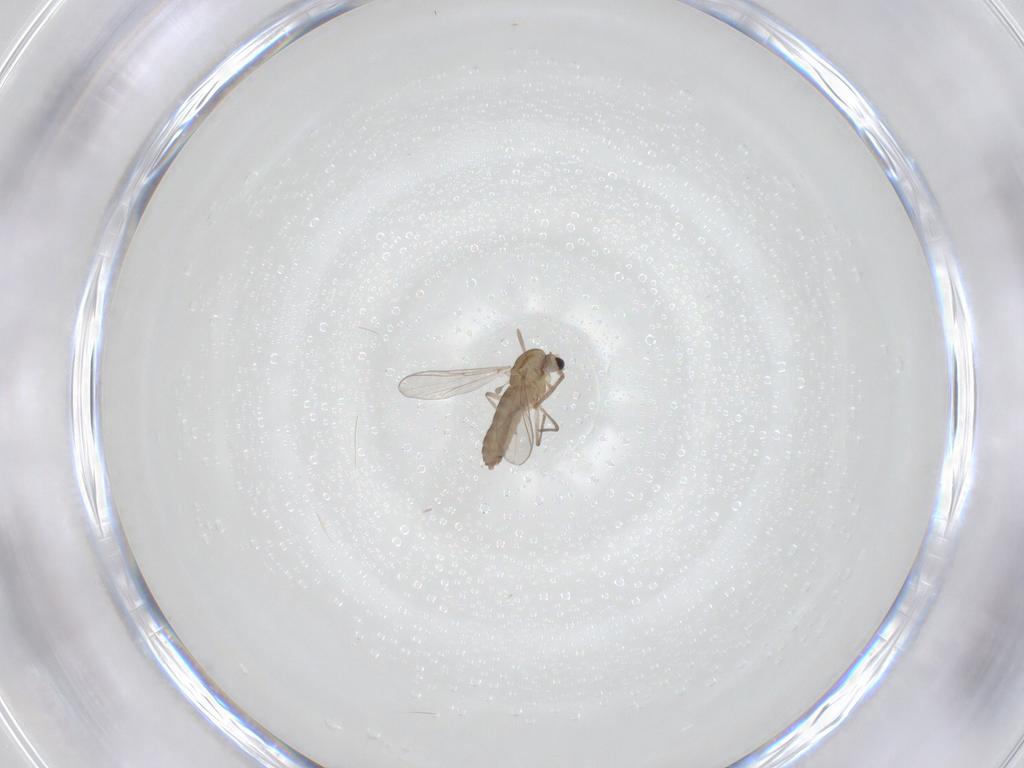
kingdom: Animalia
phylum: Arthropoda
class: Insecta
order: Diptera
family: Chironomidae
